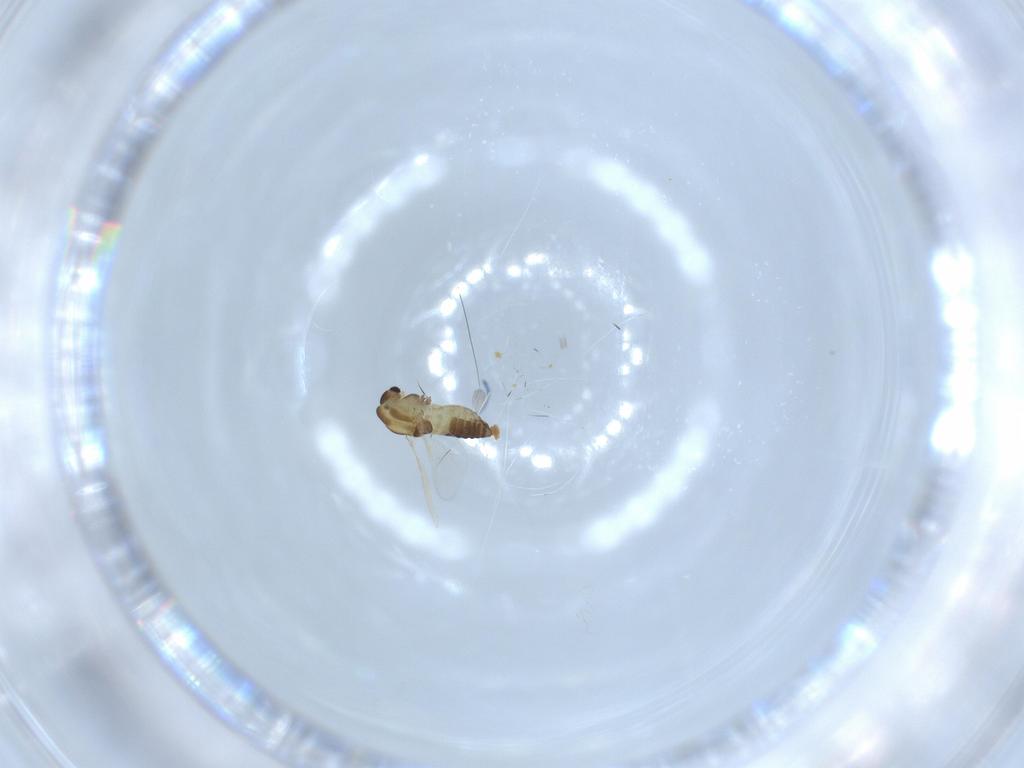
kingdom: Animalia
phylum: Arthropoda
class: Insecta
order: Diptera
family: Chironomidae
